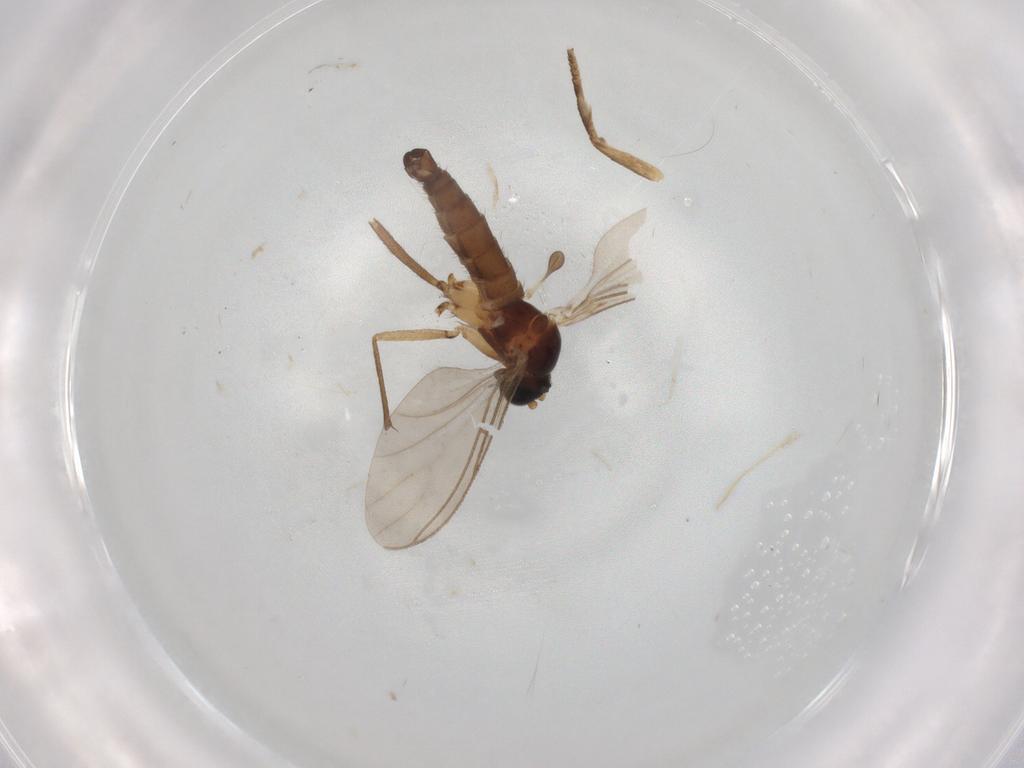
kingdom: Animalia
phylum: Arthropoda
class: Insecta
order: Diptera
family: Sciaridae
